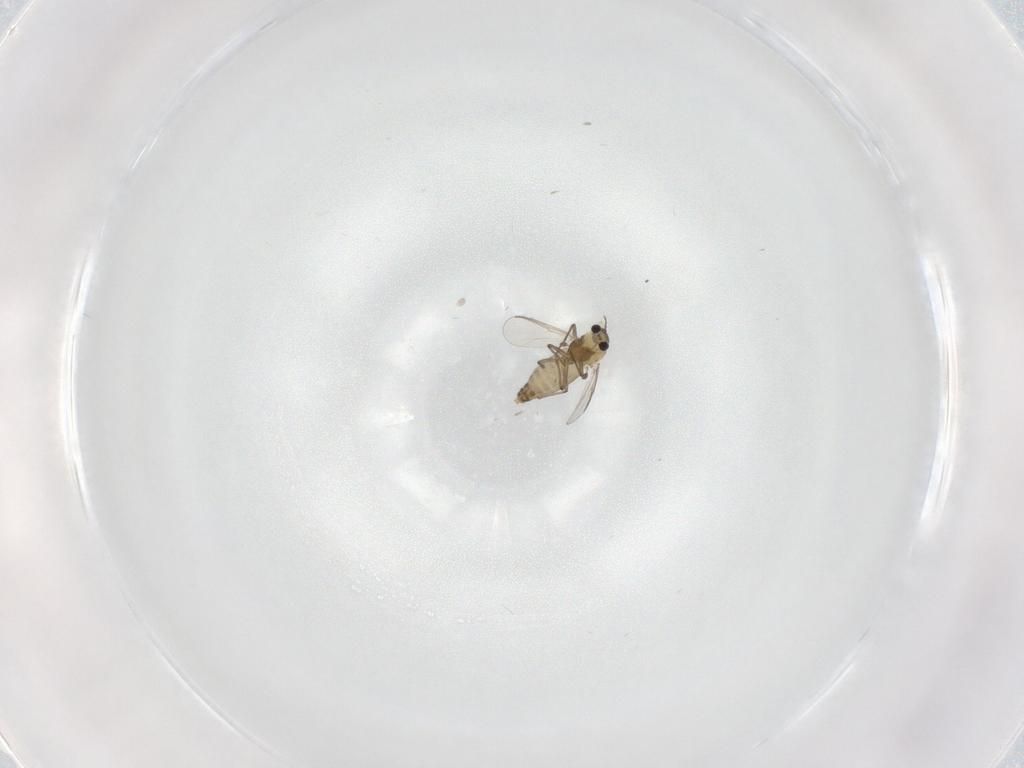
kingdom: Animalia
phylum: Arthropoda
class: Insecta
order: Diptera
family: Chironomidae
